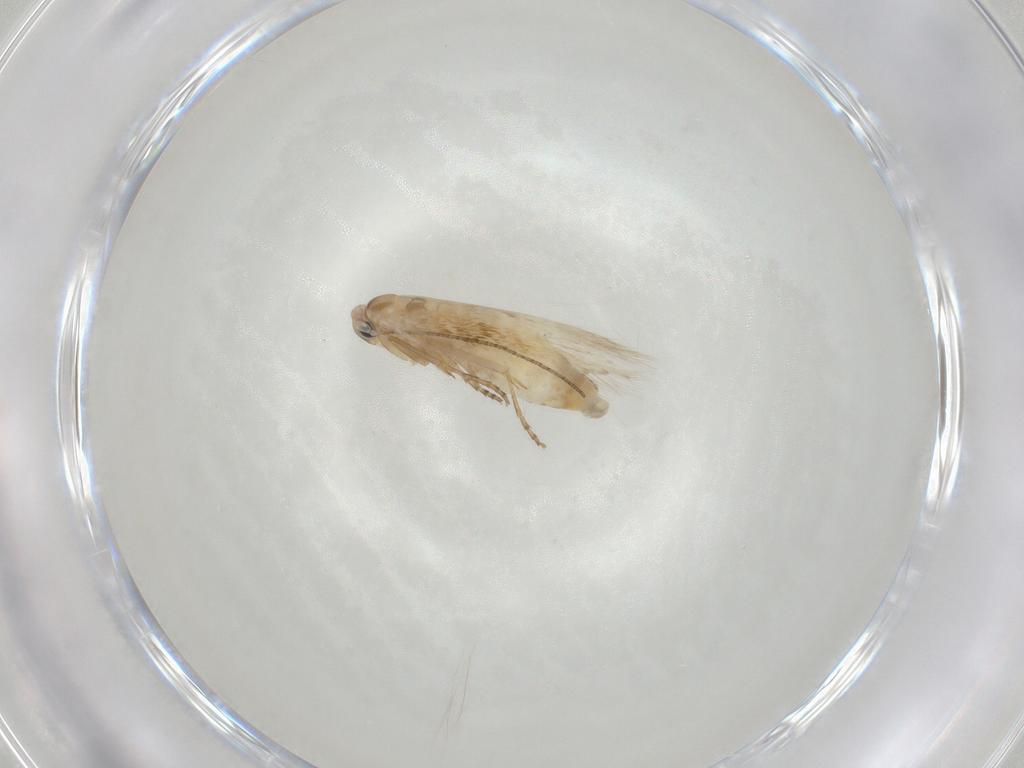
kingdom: Animalia
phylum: Arthropoda
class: Insecta
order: Lepidoptera
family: Bucculatricidae
